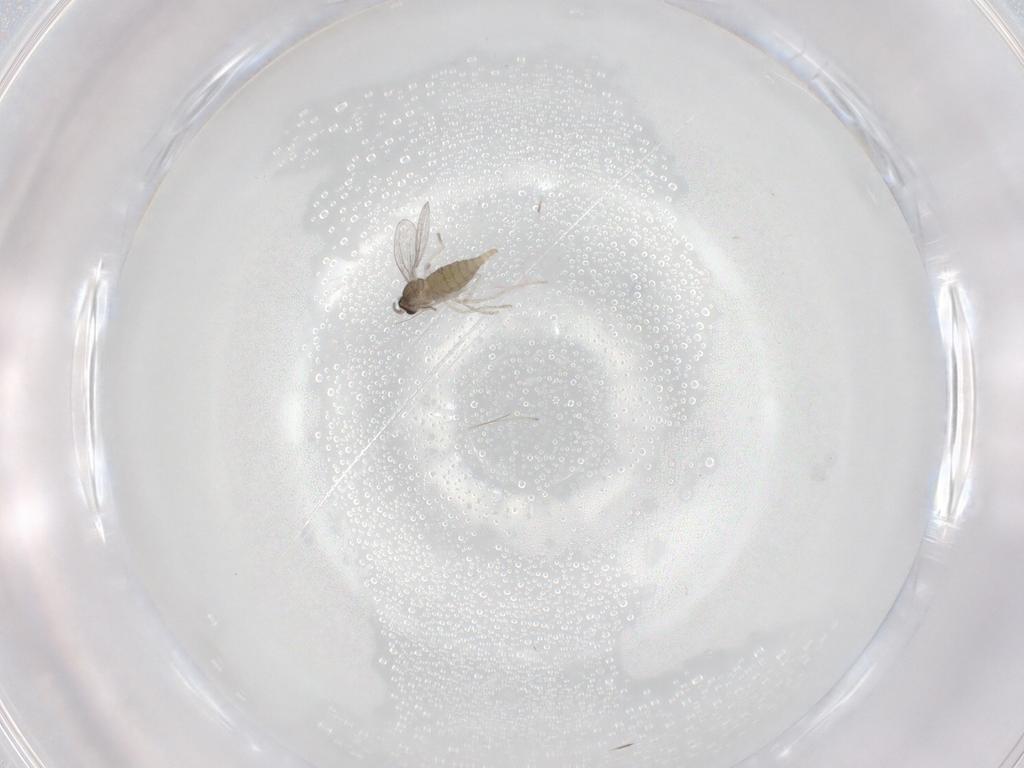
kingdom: Animalia
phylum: Arthropoda
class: Insecta
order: Diptera
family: Cecidomyiidae
